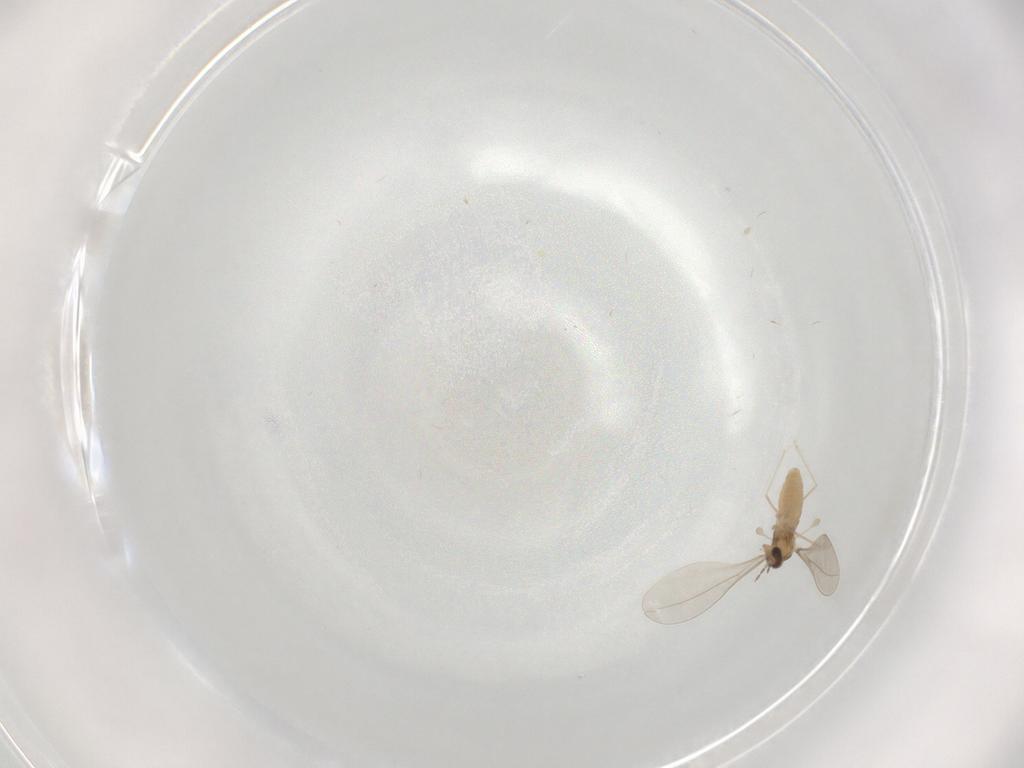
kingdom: Animalia
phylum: Arthropoda
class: Insecta
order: Diptera
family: Cecidomyiidae
